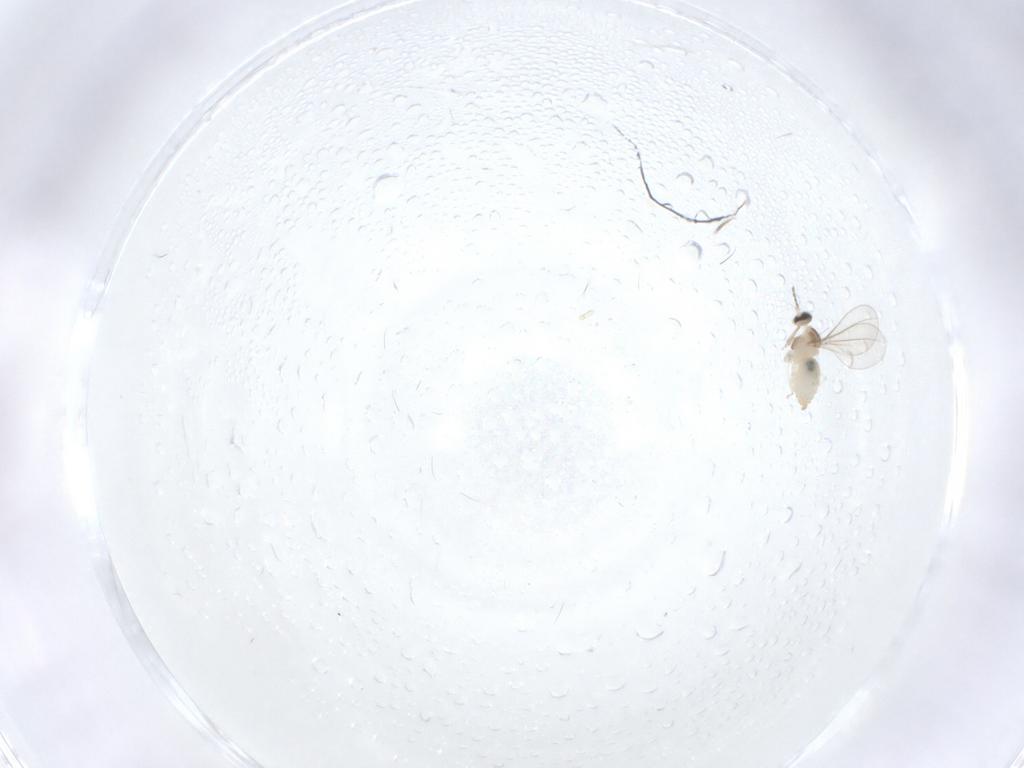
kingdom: Animalia
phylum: Arthropoda
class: Insecta
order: Diptera
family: Cecidomyiidae
